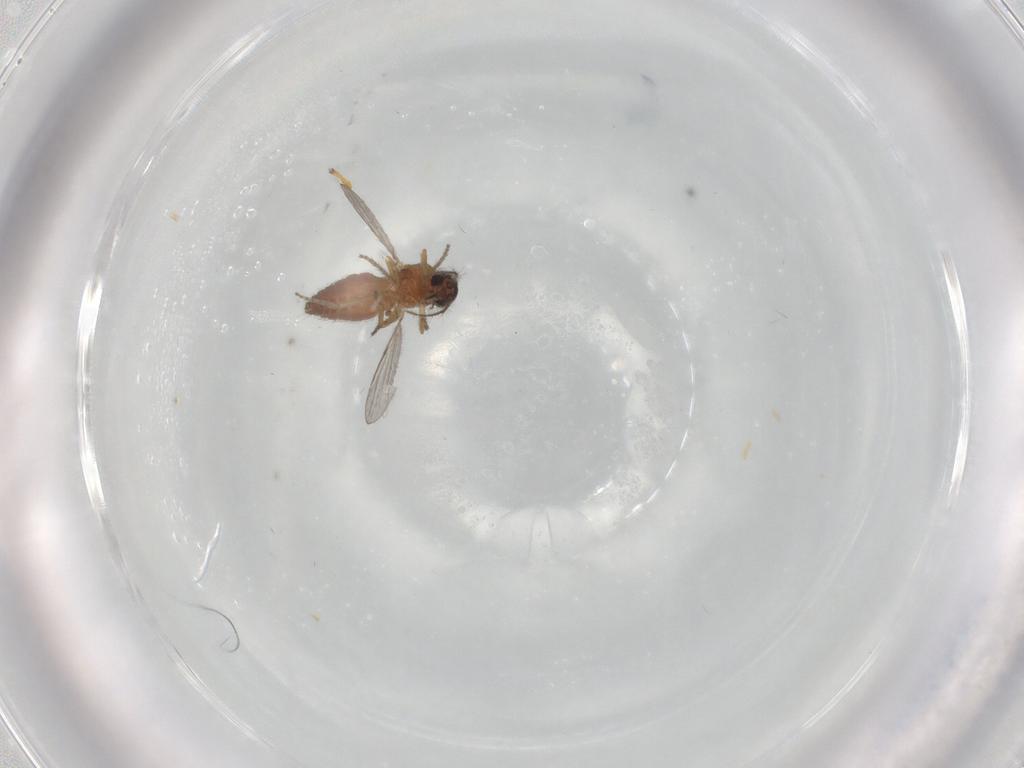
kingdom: Animalia
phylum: Arthropoda
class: Insecta
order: Diptera
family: Ceratopogonidae
